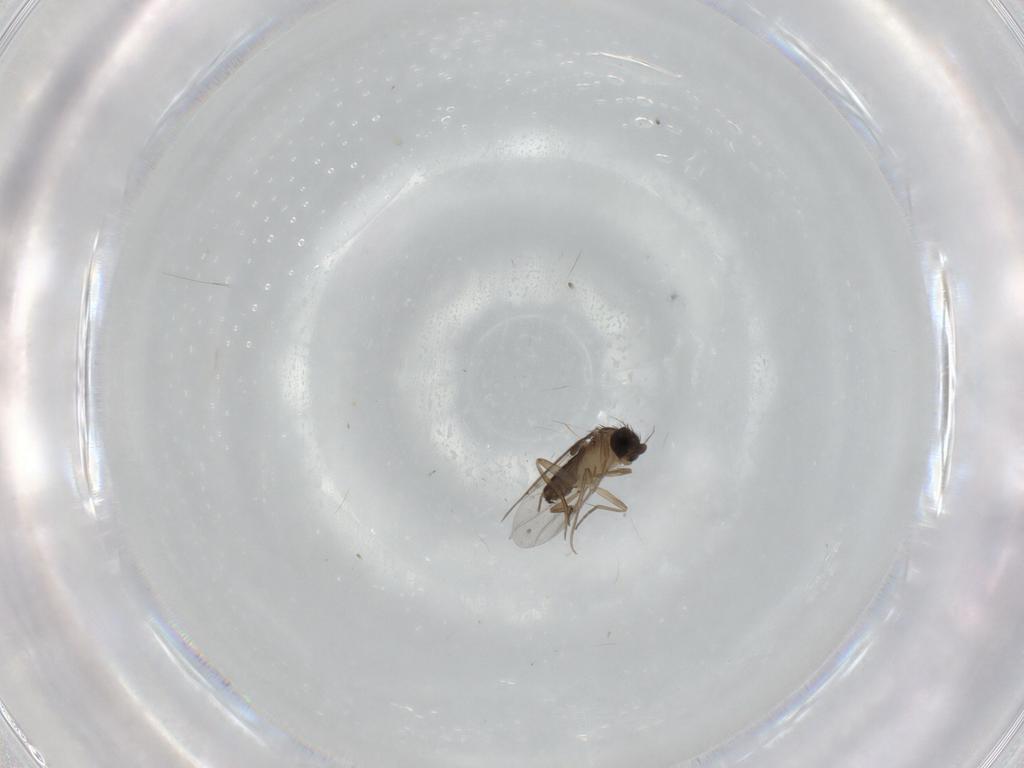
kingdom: Animalia
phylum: Arthropoda
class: Insecta
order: Diptera
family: Phoridae
